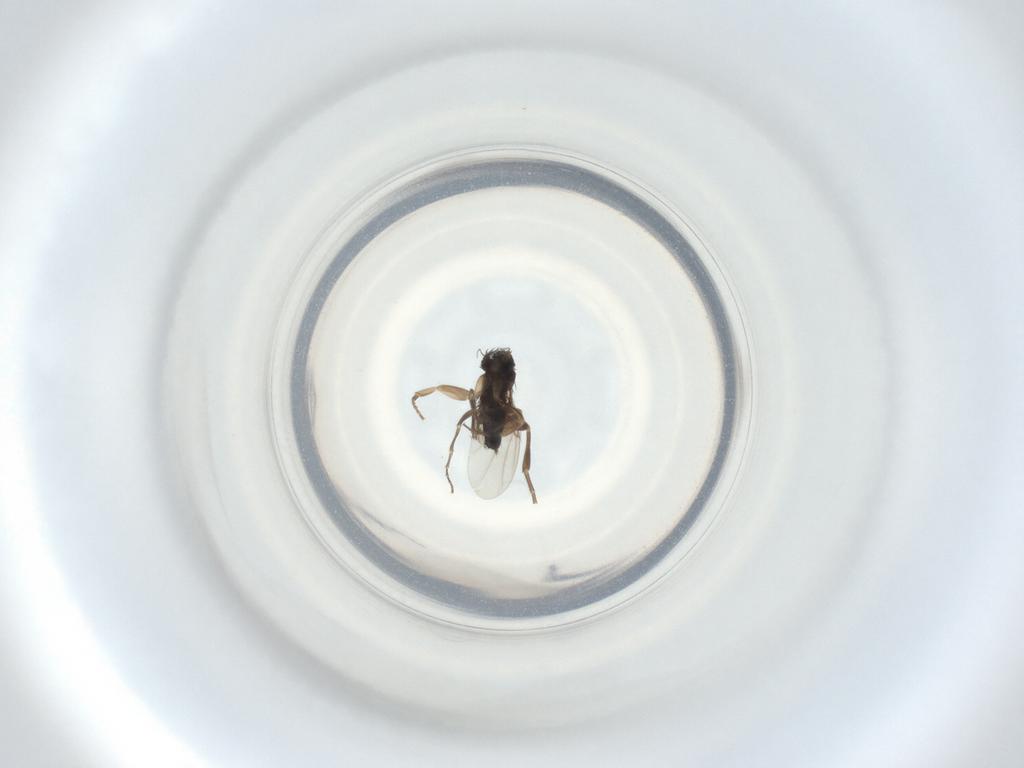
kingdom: Animalia
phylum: Arthropoda
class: Insecta
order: Diptera
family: Phoridae
